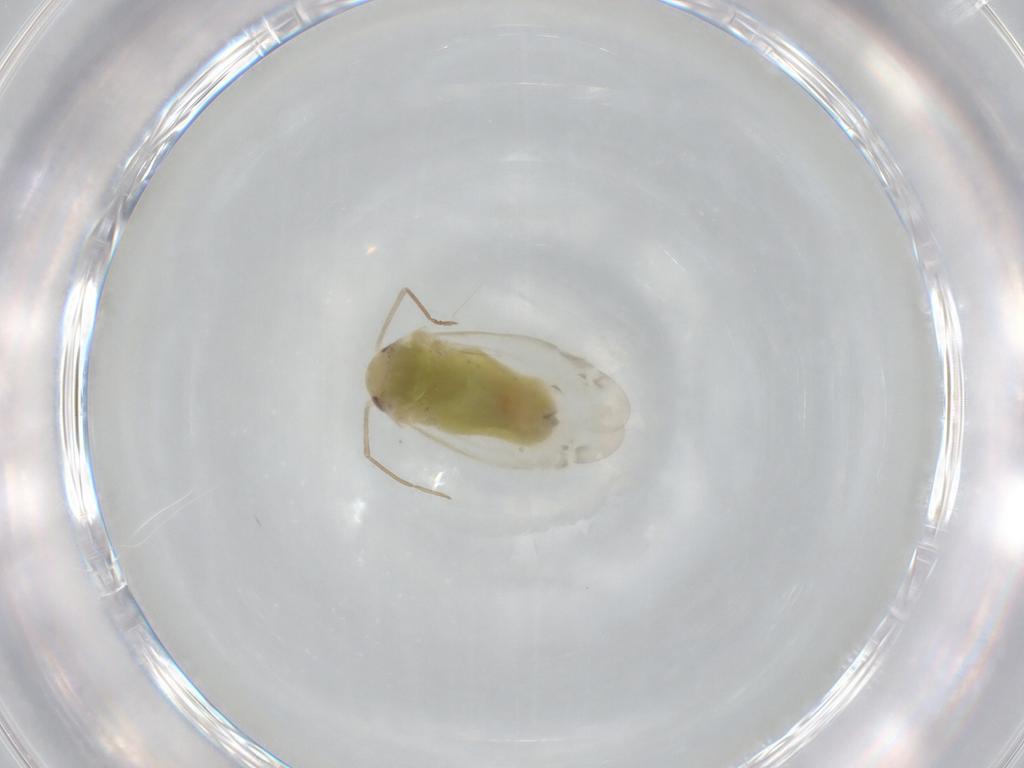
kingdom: Animalia
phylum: Arthropoda
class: Insecta
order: Hemiptera
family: Miridae
